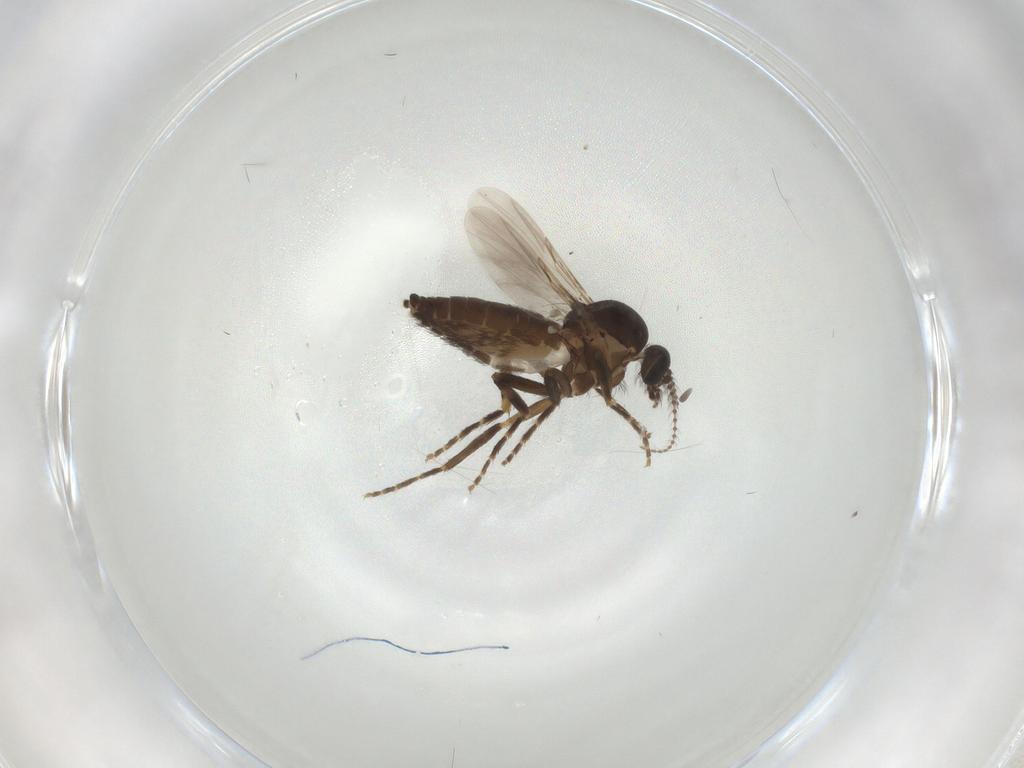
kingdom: Animalia
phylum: Arthropoda
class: Insecta
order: Diptera
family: Ceratopogonidae
